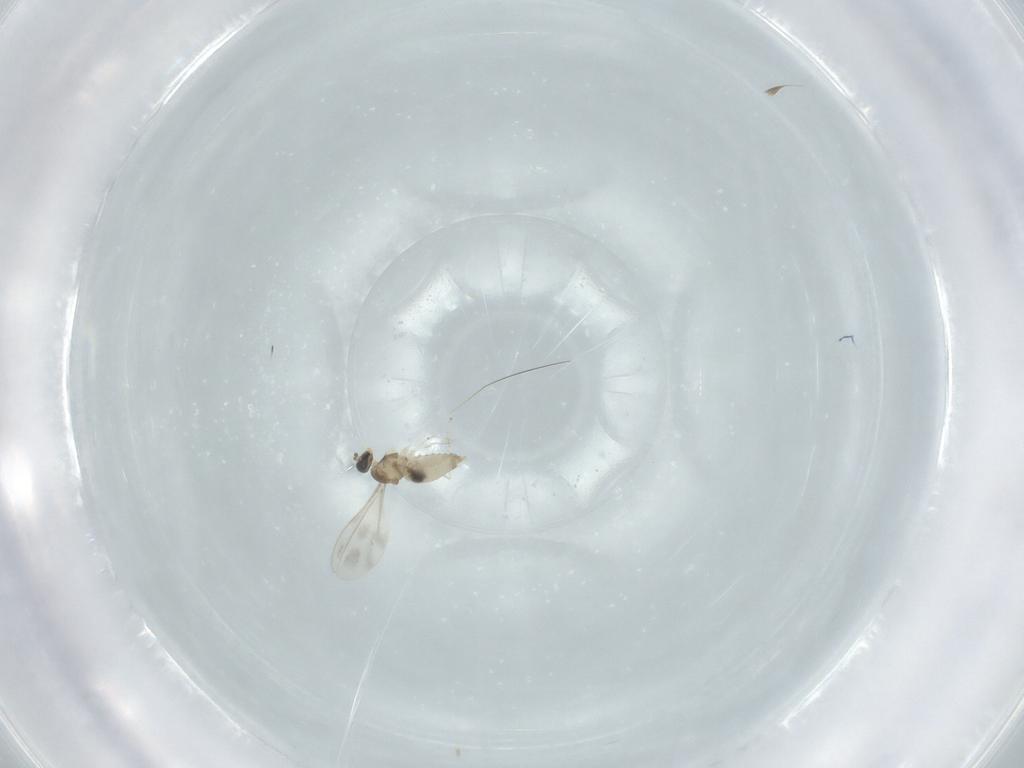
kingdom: Animalia
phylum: Arthropoda
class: Insecta
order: Diptera
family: Cecidomyiidae
